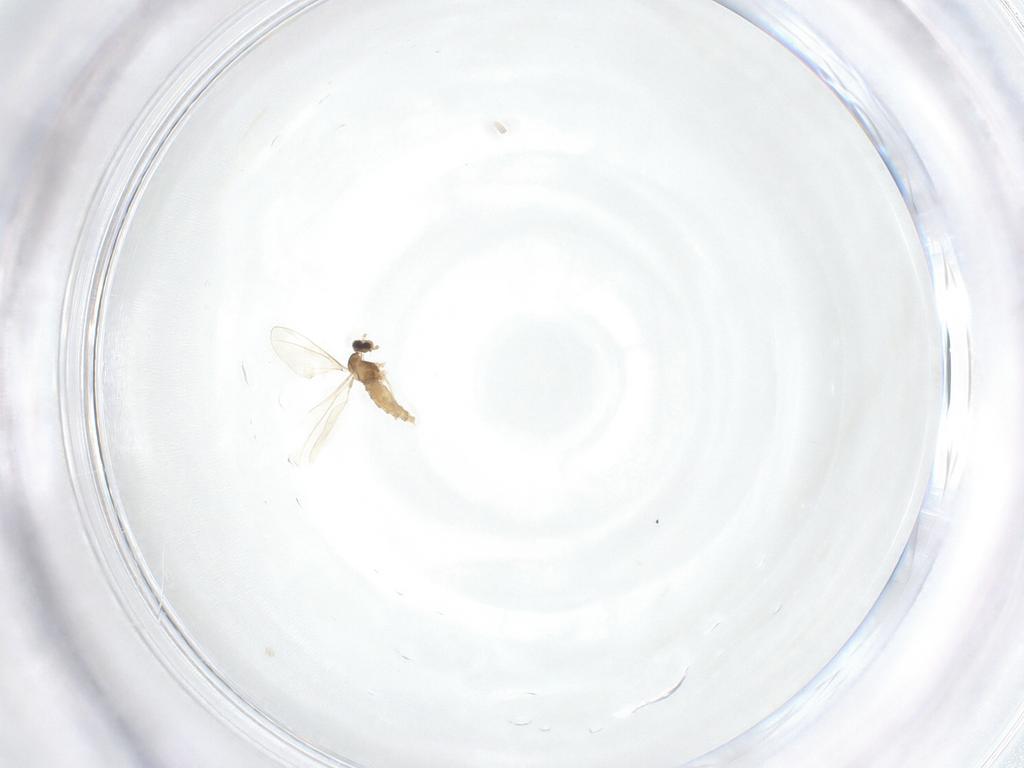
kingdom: Animalia
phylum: Arthropoda
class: Insecta
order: Diptera
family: Cecidomyiidae
